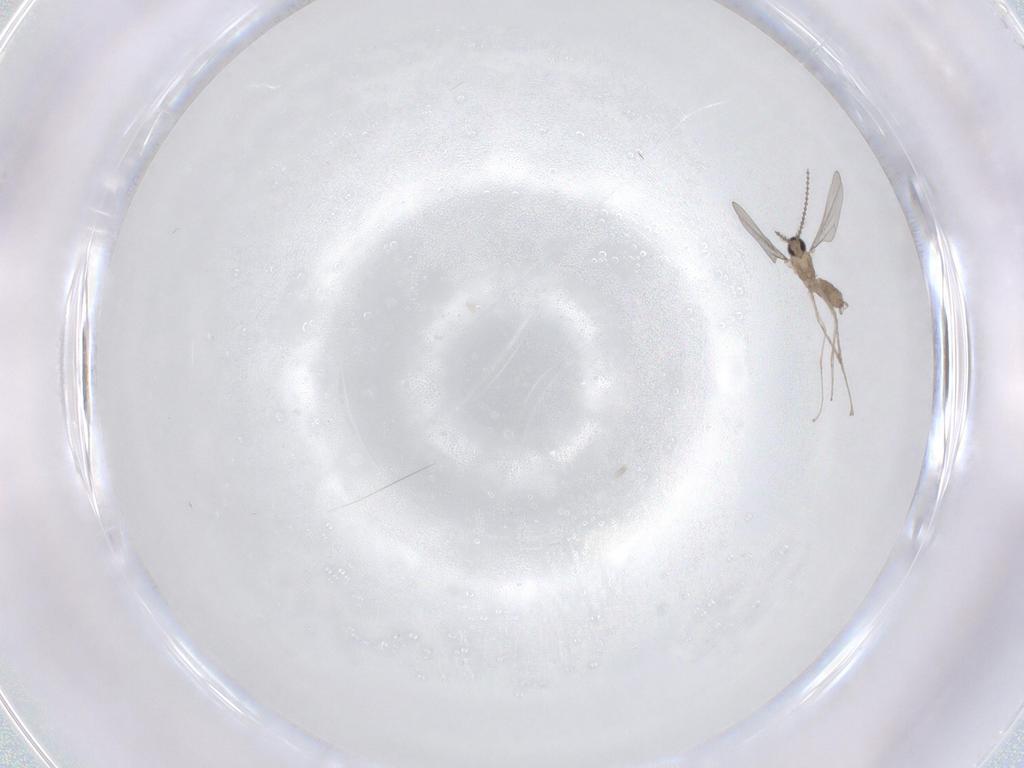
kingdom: Animalia
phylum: Arthropoda
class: Insecta
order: Diptera
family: Cecidomyiidae
